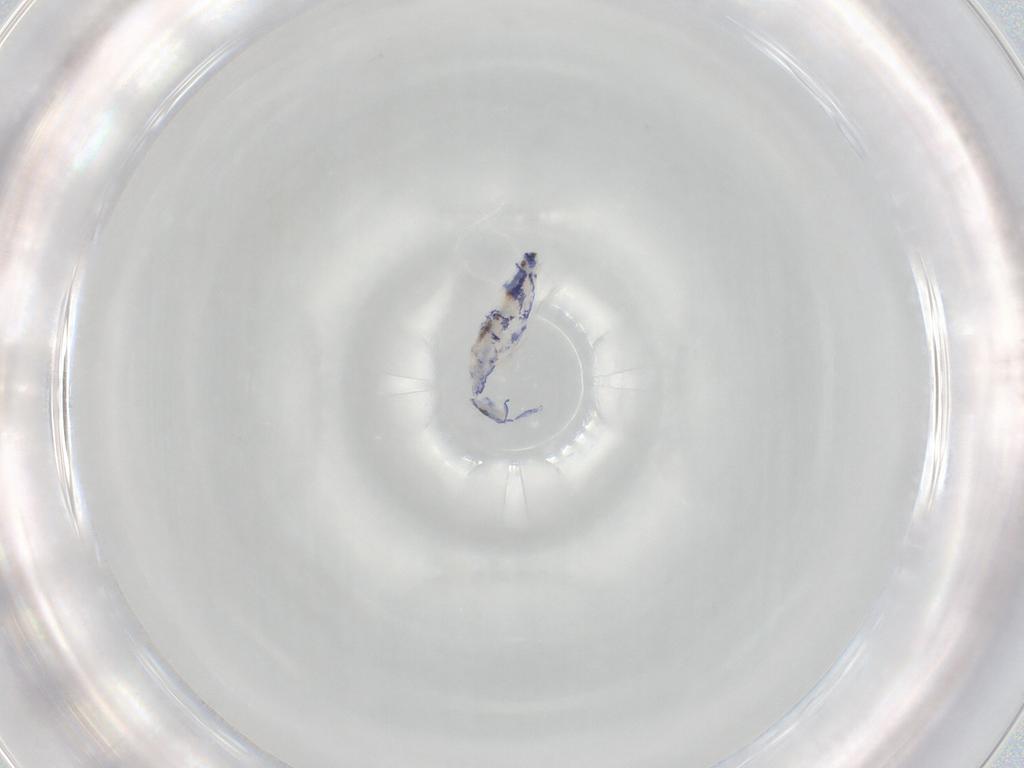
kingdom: Animalia
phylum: Arthropoda
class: Collembola
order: Entomobryomorpha
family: Entomobryidae
